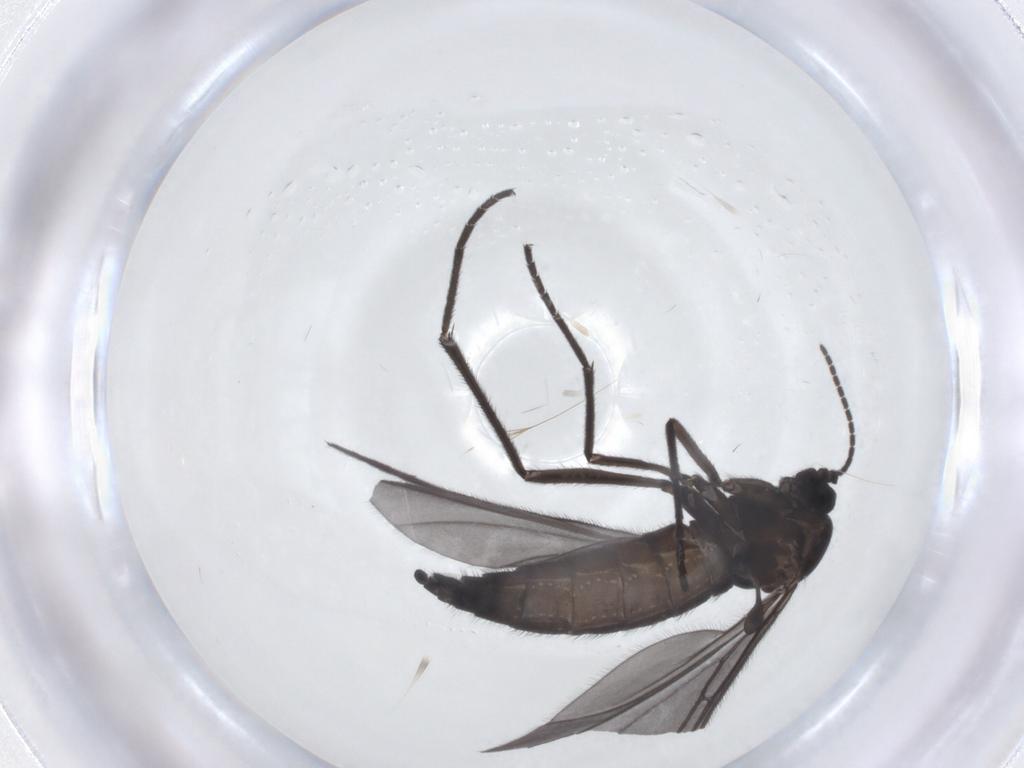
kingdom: Animalia
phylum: Arthropoda
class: Insecta
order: Diptera
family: Sciaridae
